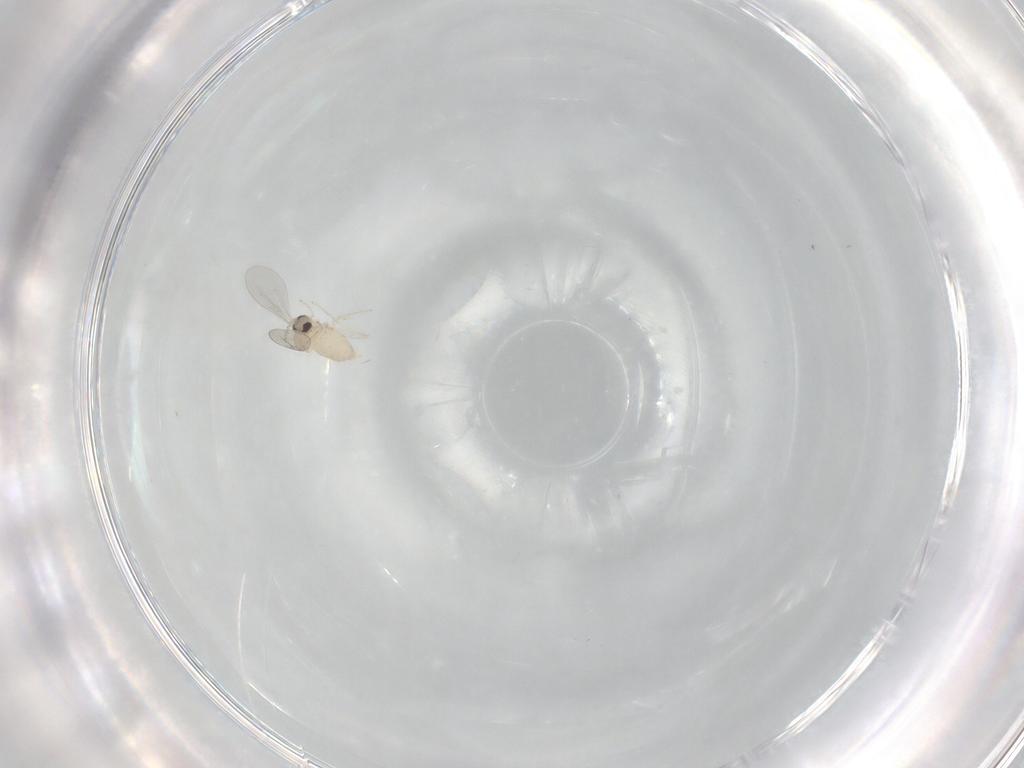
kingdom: Animalia
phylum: Arthropoda
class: Insecta
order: Diptera
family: Cecidomyiidae
